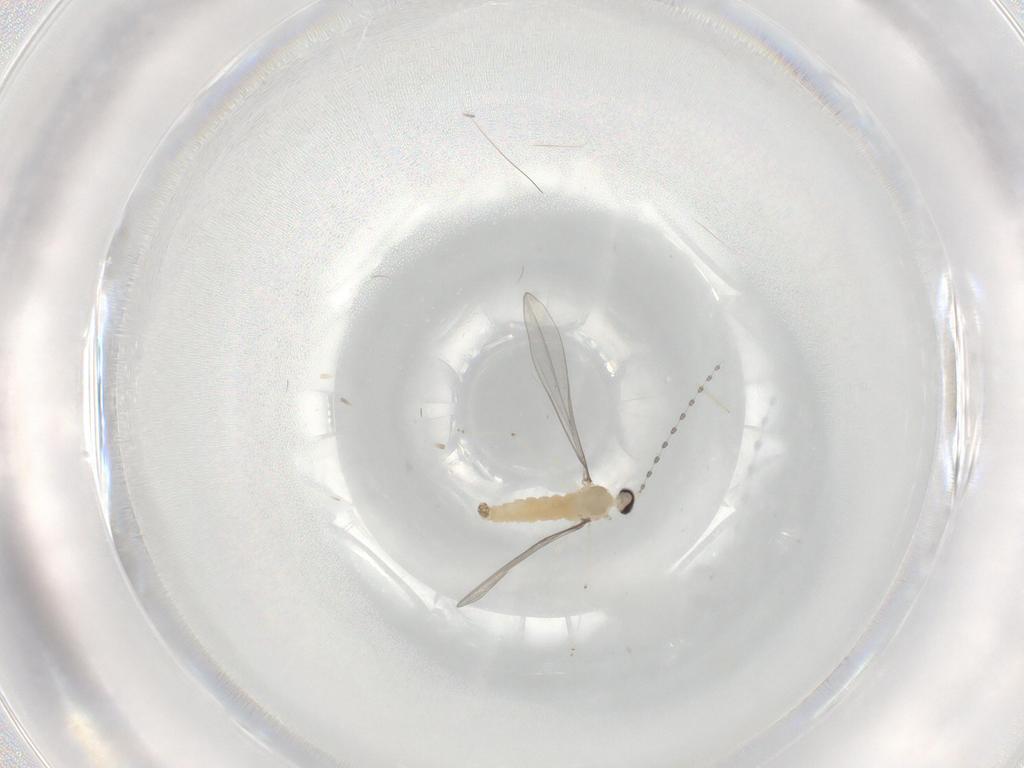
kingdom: Animalia
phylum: Arthropoda
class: Insecta
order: Diptera
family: Cecidomyiidae
